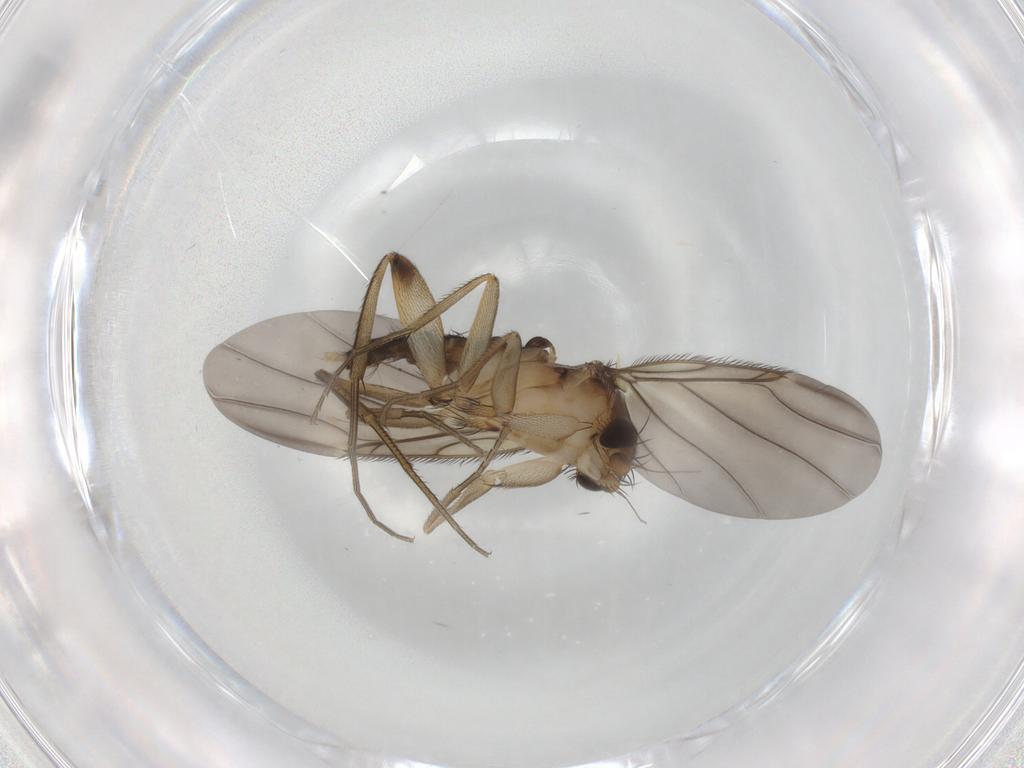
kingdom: Animalia
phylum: Arthropoda
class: Insecta
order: Diptera
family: Phoridae
